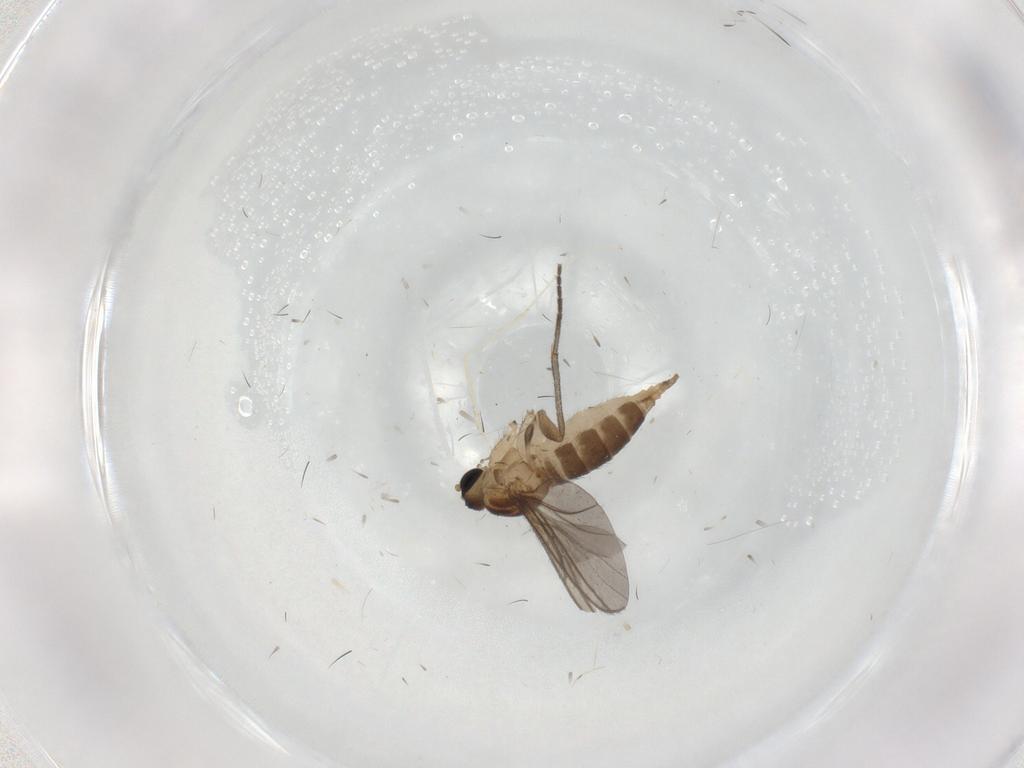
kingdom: Animalia
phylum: Arthropoda
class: Insecta
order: Diptera
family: Sciaridae
